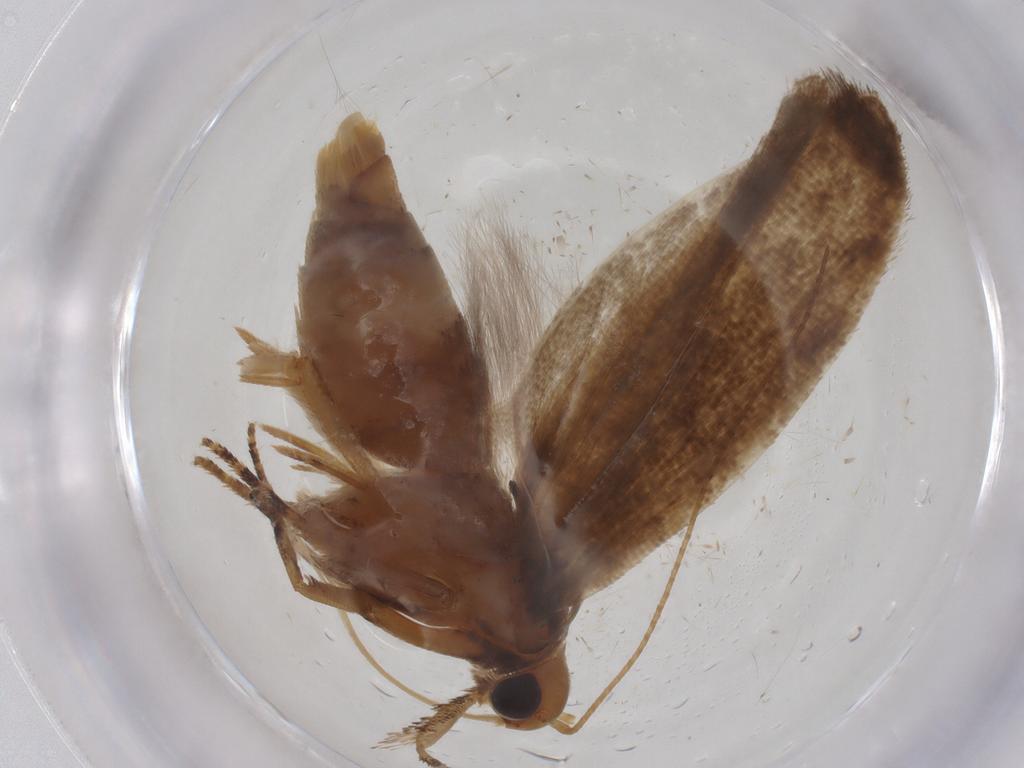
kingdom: Animalia
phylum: Arthropoda
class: Insecta
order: Lepidoptera
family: Gelechiidae
